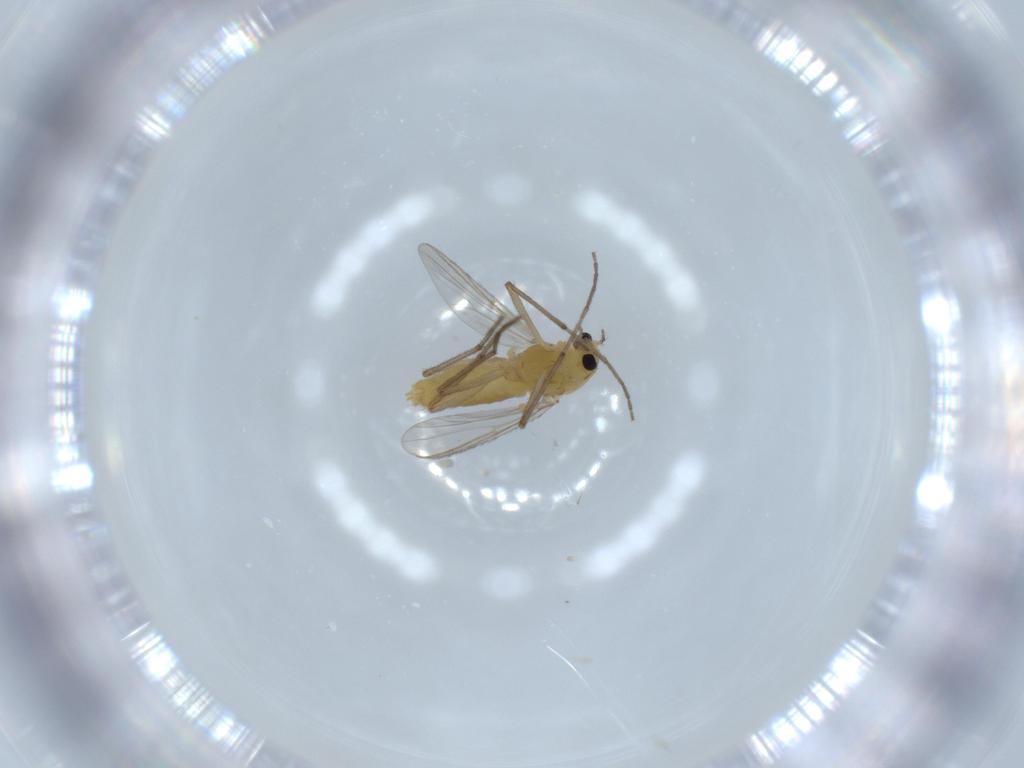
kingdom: Animalia
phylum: Arthropoda
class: Insecta
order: Diptera
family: Chironomidae
